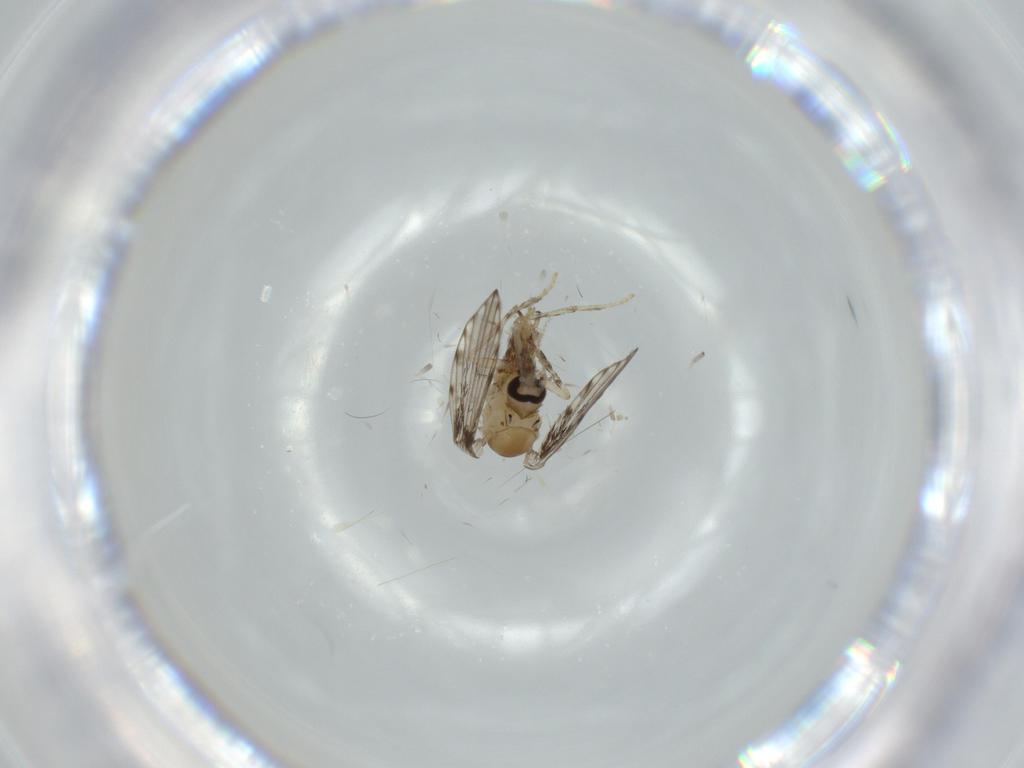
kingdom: Animalia
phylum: Arthropoda
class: Insecta
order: Diptera
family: Psychodidae
